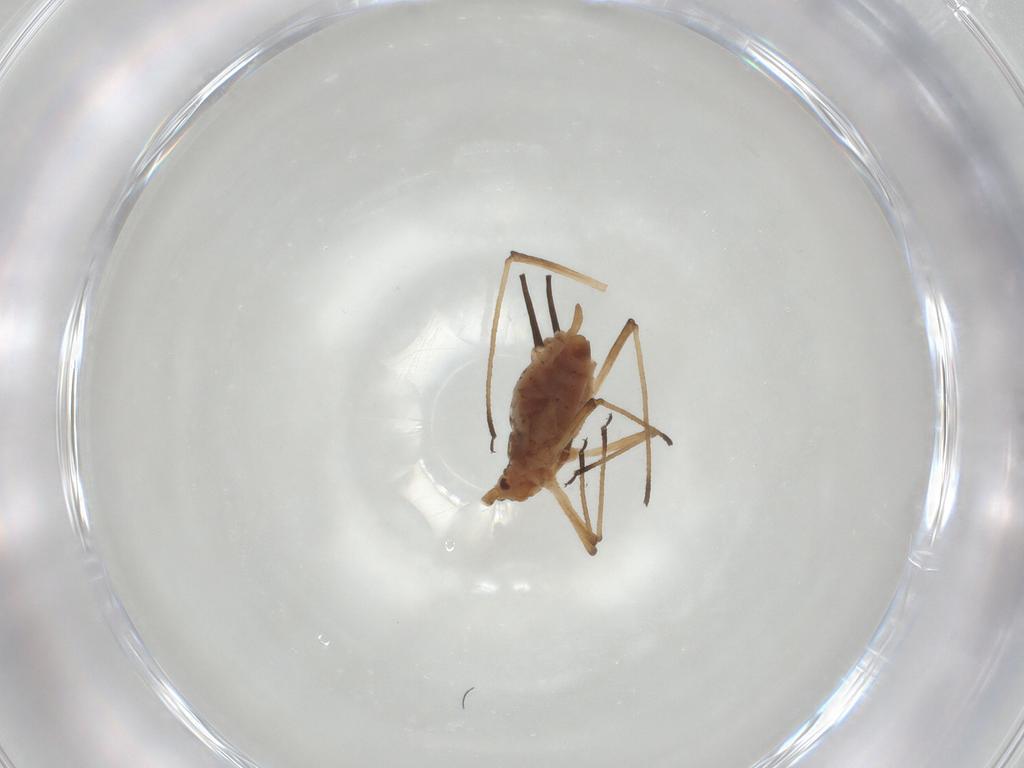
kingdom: Animalia
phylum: Arthropoda
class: Insecta
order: Hemiptera
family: Aphididae
